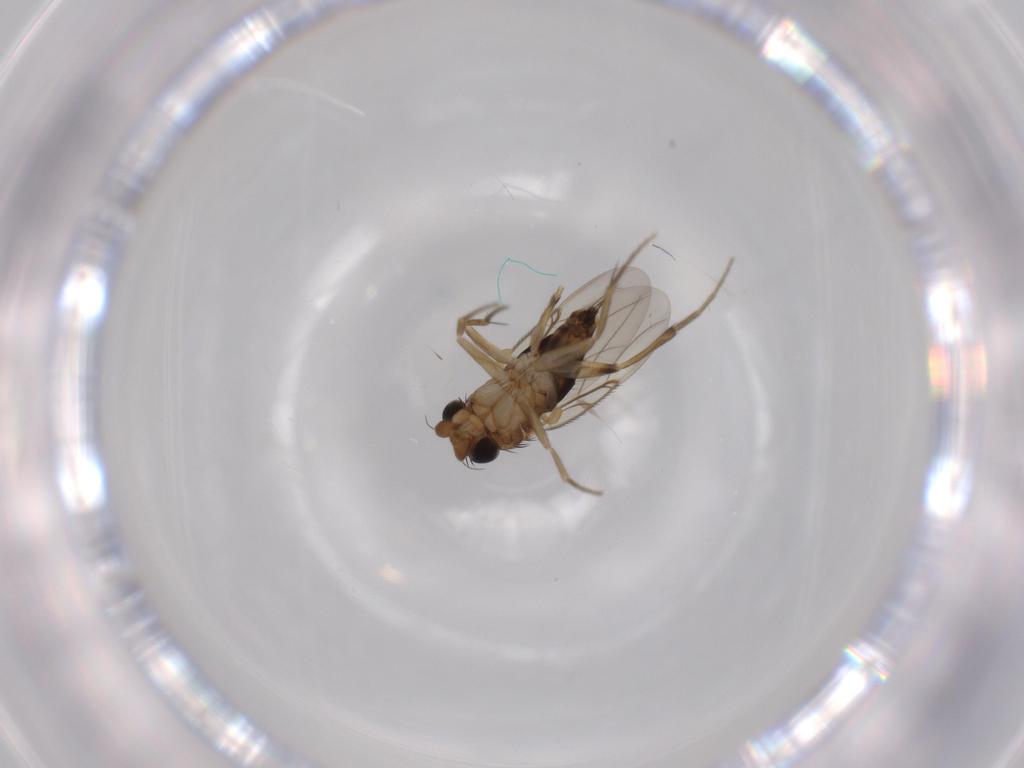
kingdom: Animalia
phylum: Arthropoda
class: Insecta
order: Diptera
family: Phoridae
